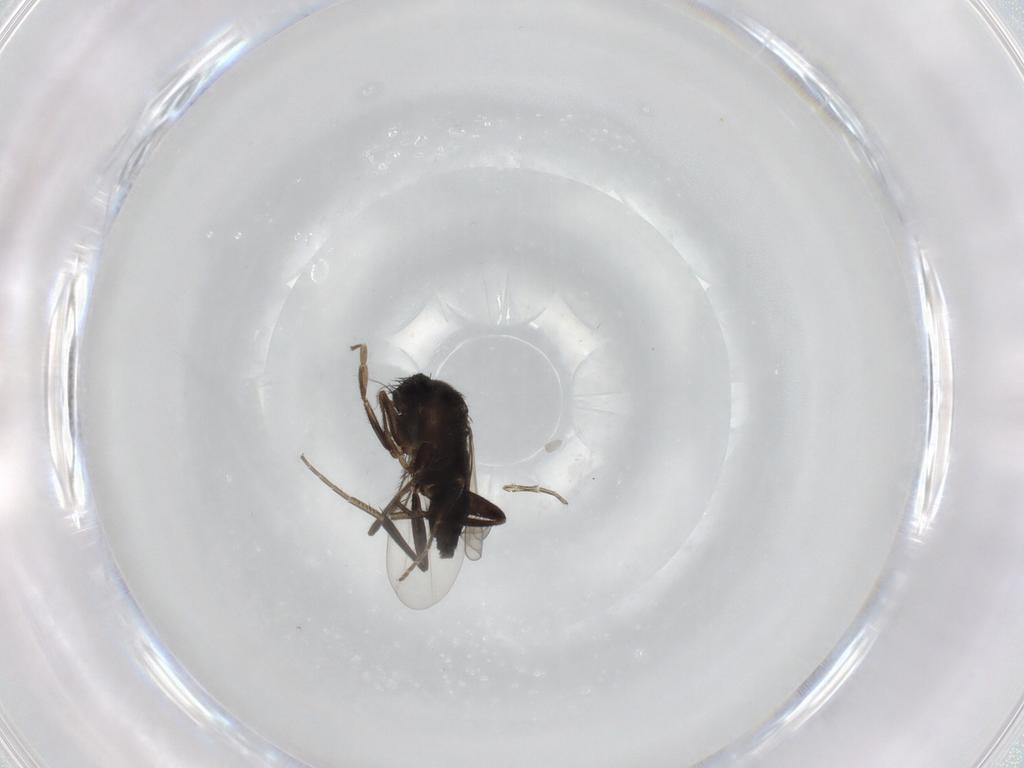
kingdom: Animalia
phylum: Arthropoda
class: Insecta
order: Diptera
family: Phoridae
